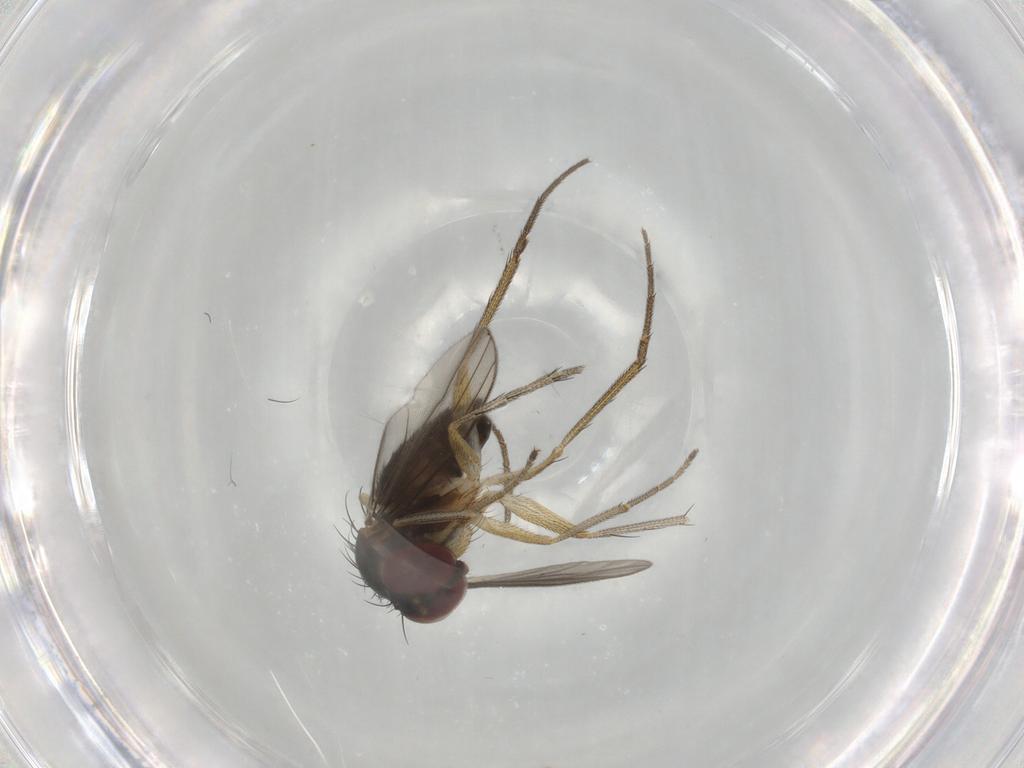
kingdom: Animalia
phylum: Arthropoda
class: Insecta
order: Diptera
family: Dolichopodidae
